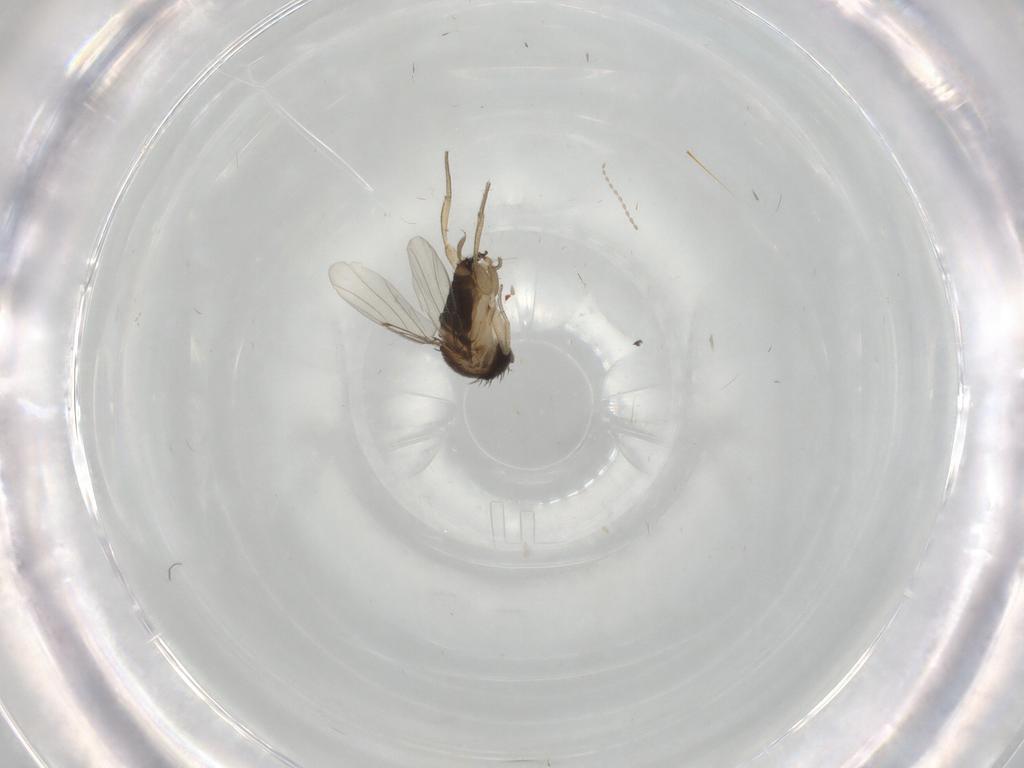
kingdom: Animalia
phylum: Arthropoda
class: Insecta
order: Diptera
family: Chironomidae
